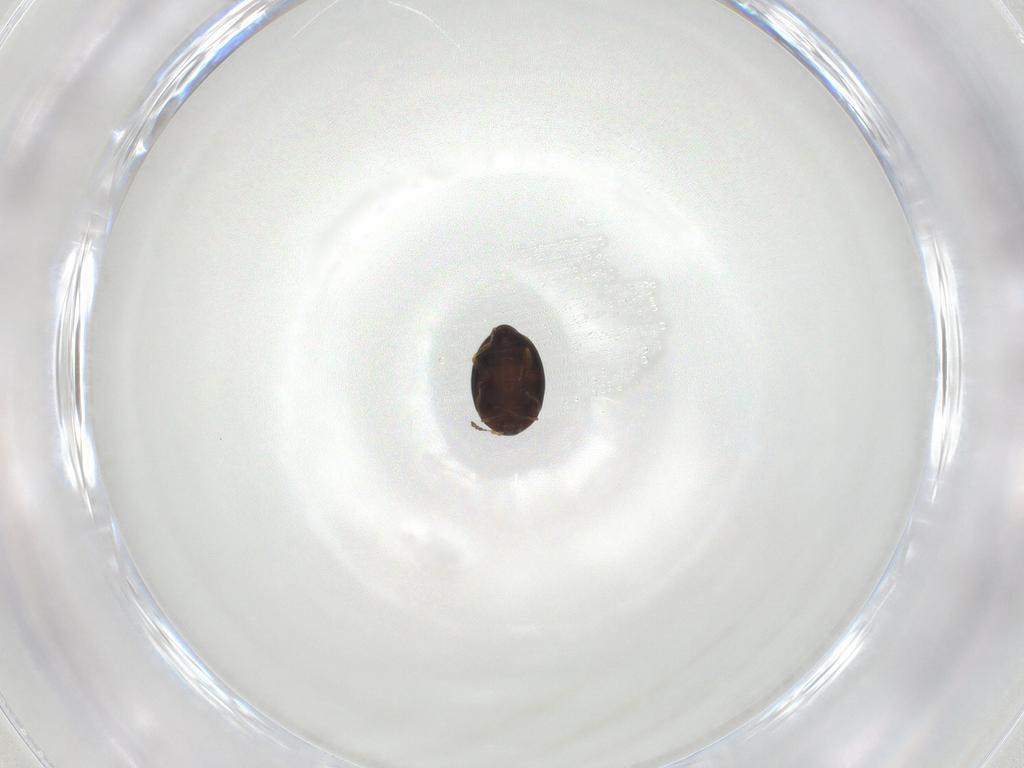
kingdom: Animalia
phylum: Arthropoda
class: Insecta
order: Coleoptera
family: Corylophidae
